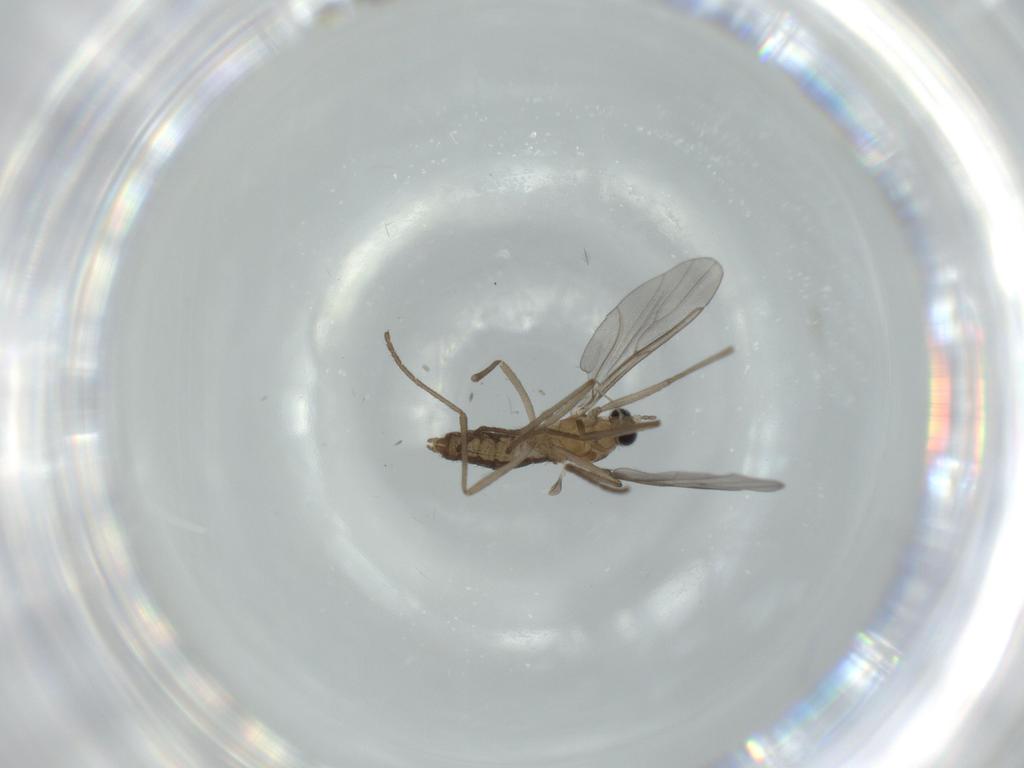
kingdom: Animalia
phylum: Arthropoda
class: Insecta
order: Diptera
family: Cecidomyiidae
